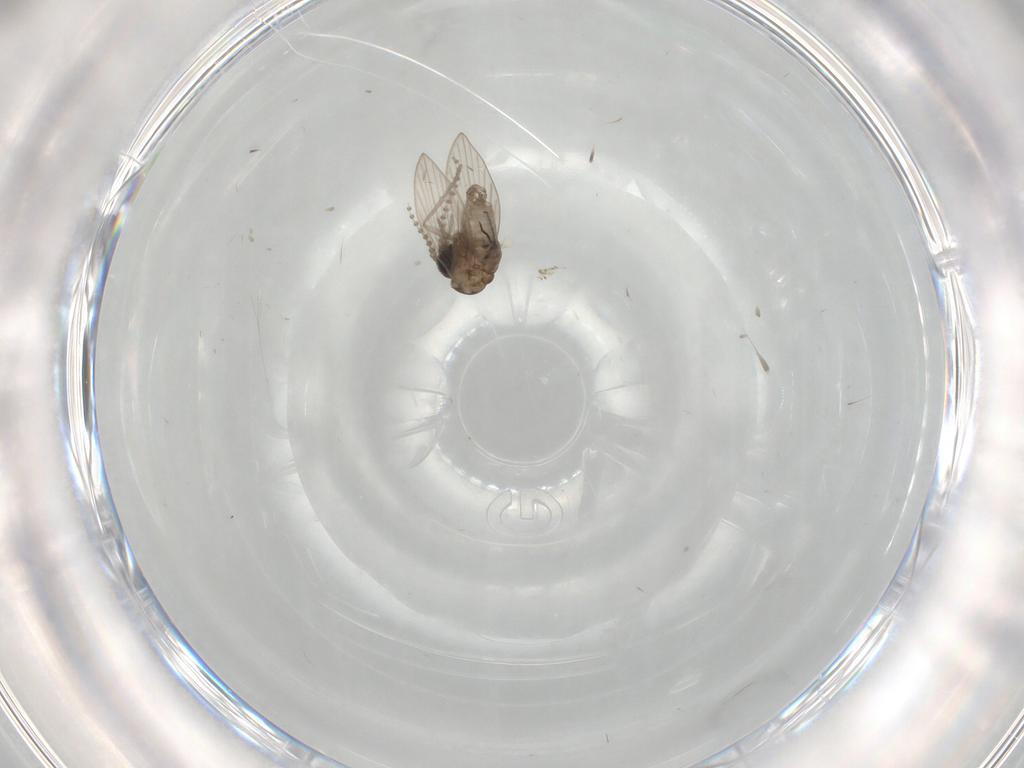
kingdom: Animalia
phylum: Arthropoda
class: Insecta
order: Diptera
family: Sciaridae
